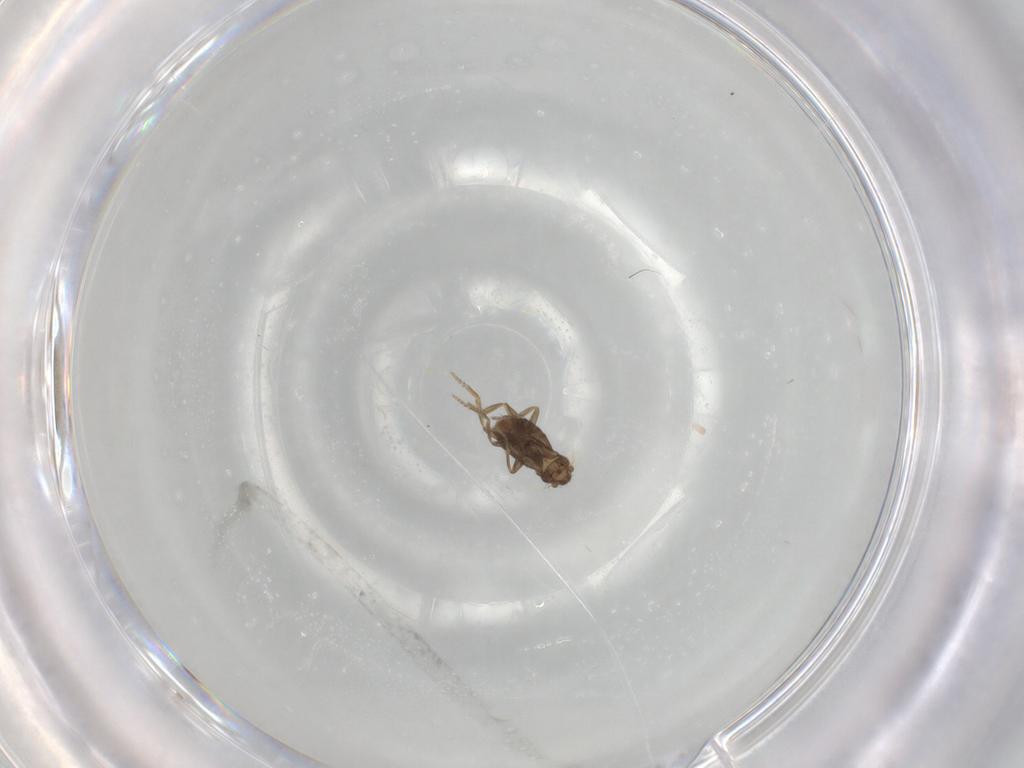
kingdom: Animalia
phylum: Arthropoda
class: Insecta
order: Diptera
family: Phoridae
